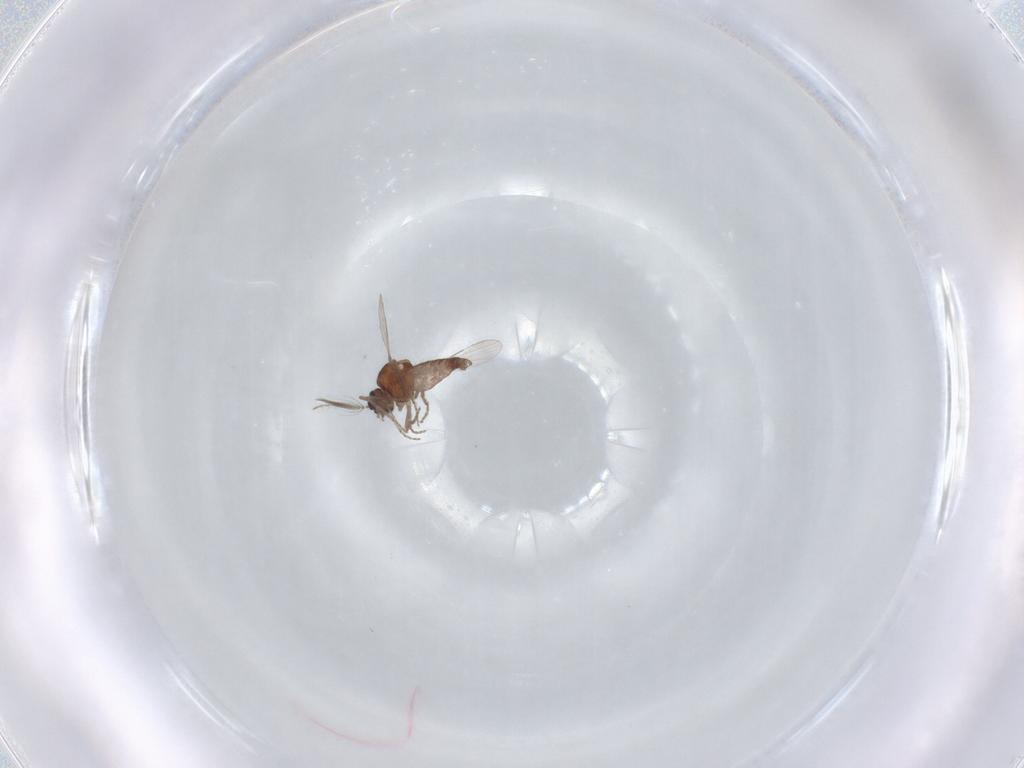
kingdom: Animalia
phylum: Arthropoda
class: Insecta
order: Diptera
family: Ceratopogonidae
